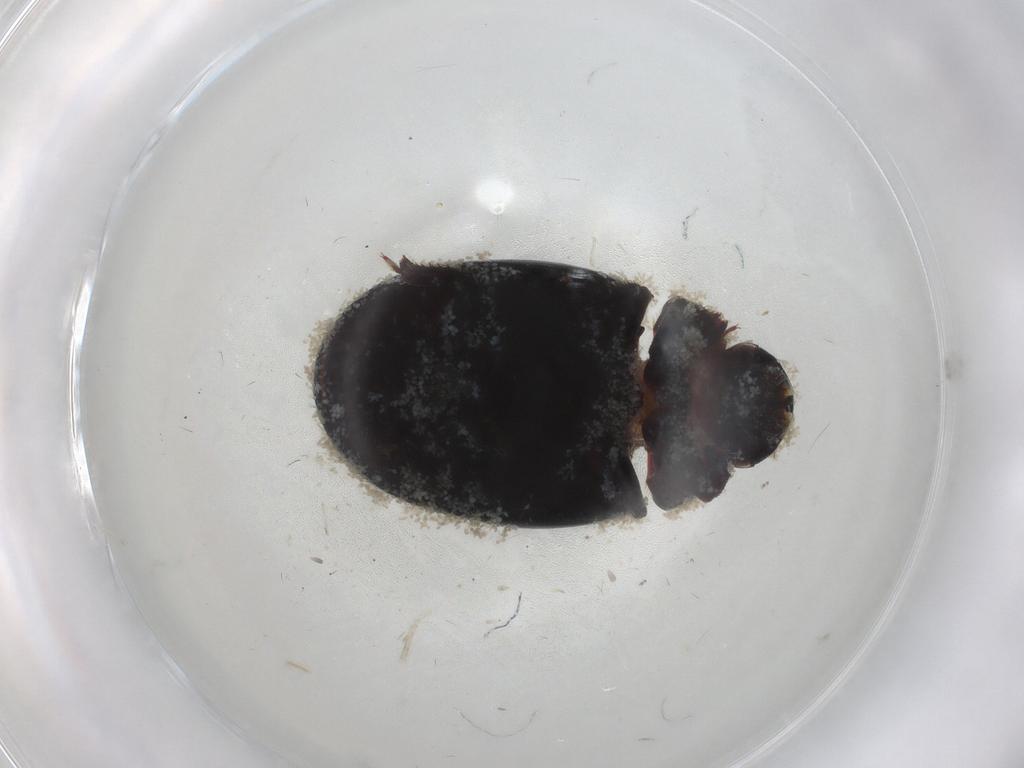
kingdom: Animalia
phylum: Arthropoda
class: Insecta
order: Coleoptera
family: Coccinellidae
